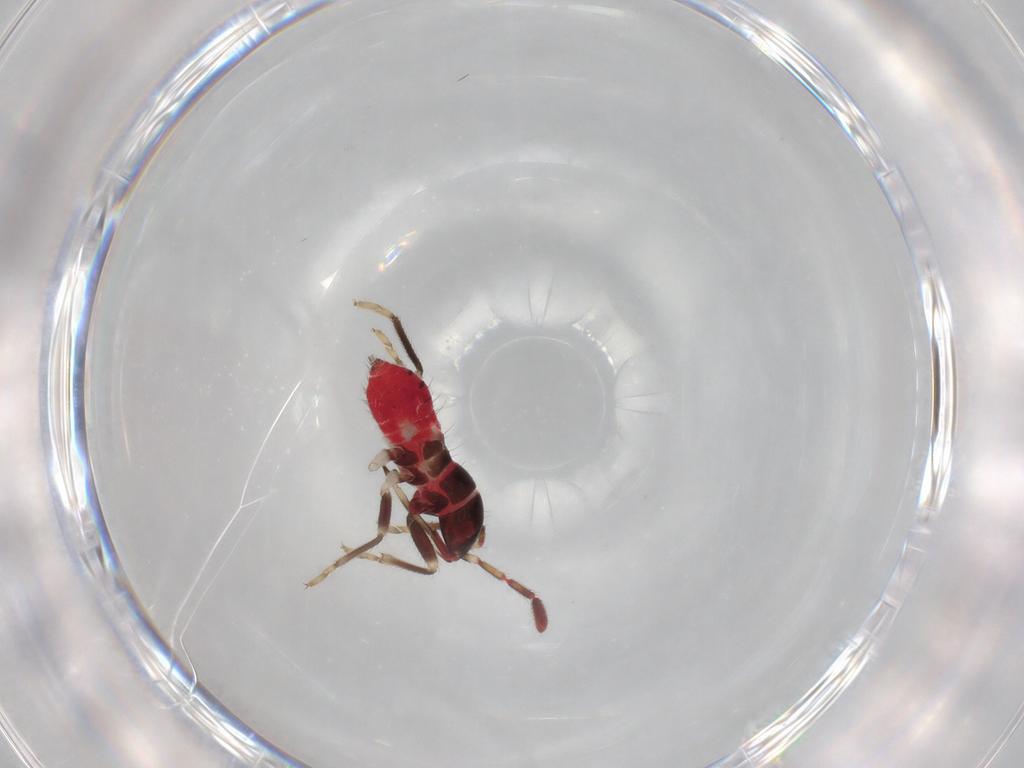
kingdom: Animalia
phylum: Arthropoda
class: Insecta
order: Hemiptera
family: Rhyparochromidae
